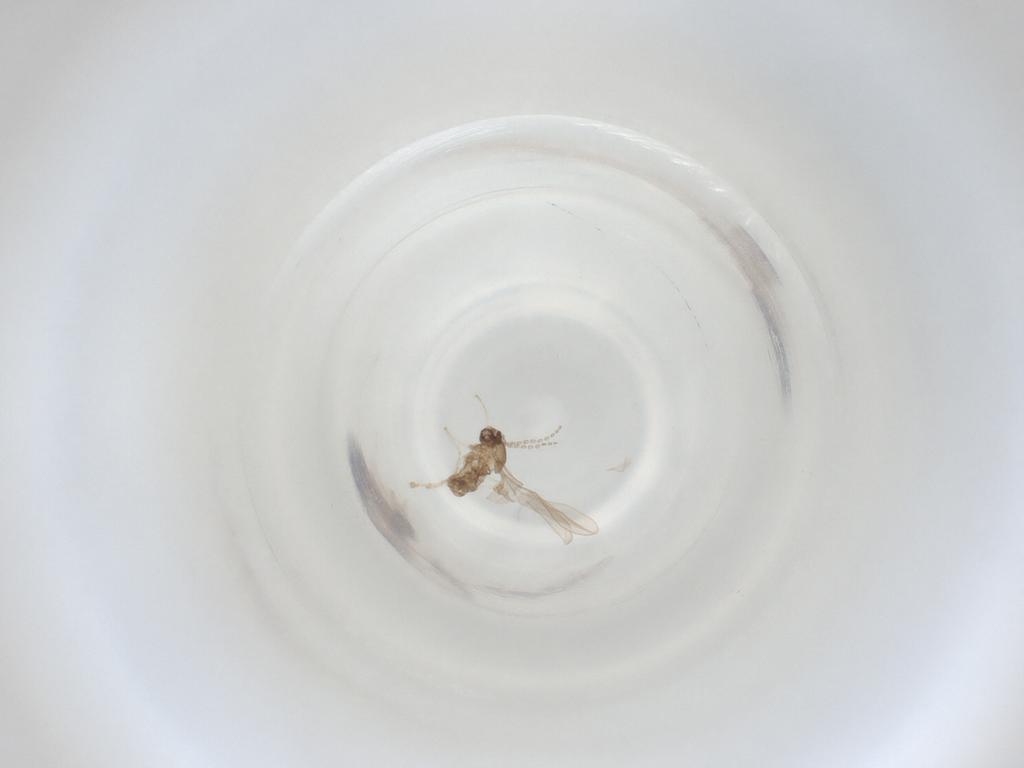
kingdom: Animalia
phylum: Arthropoda
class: Insecta
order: Diptera
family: Cecidomyiidae
